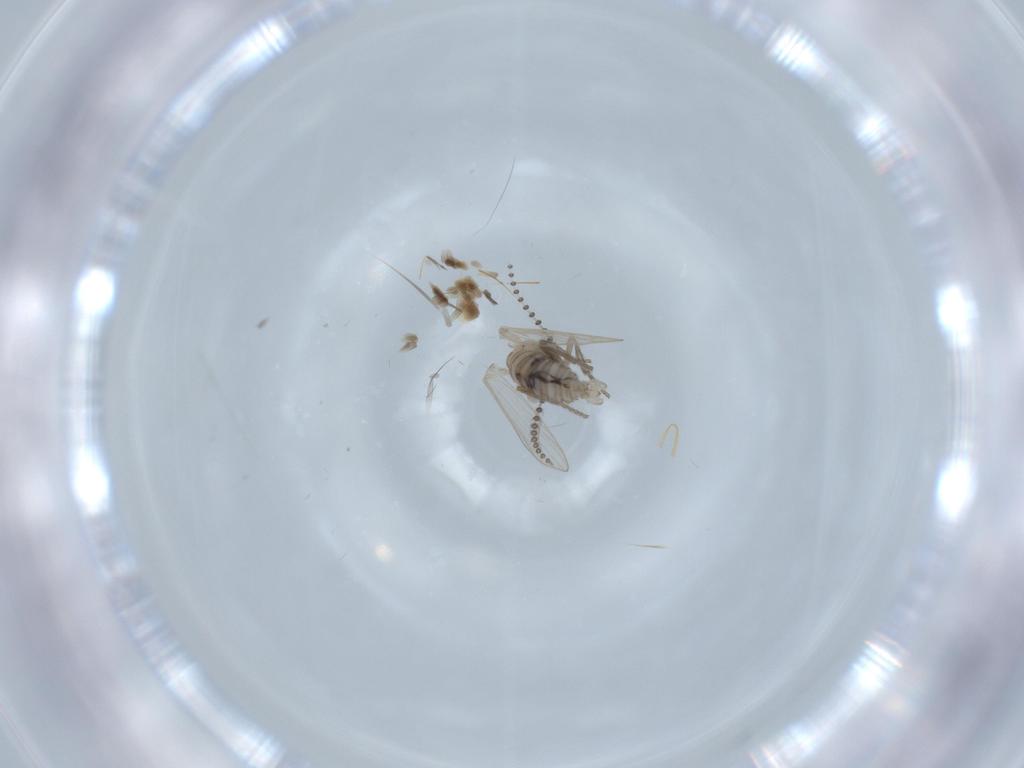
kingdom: Animalia
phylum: Arthropoda
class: Insecta
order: Diptera
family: Psychodidae
